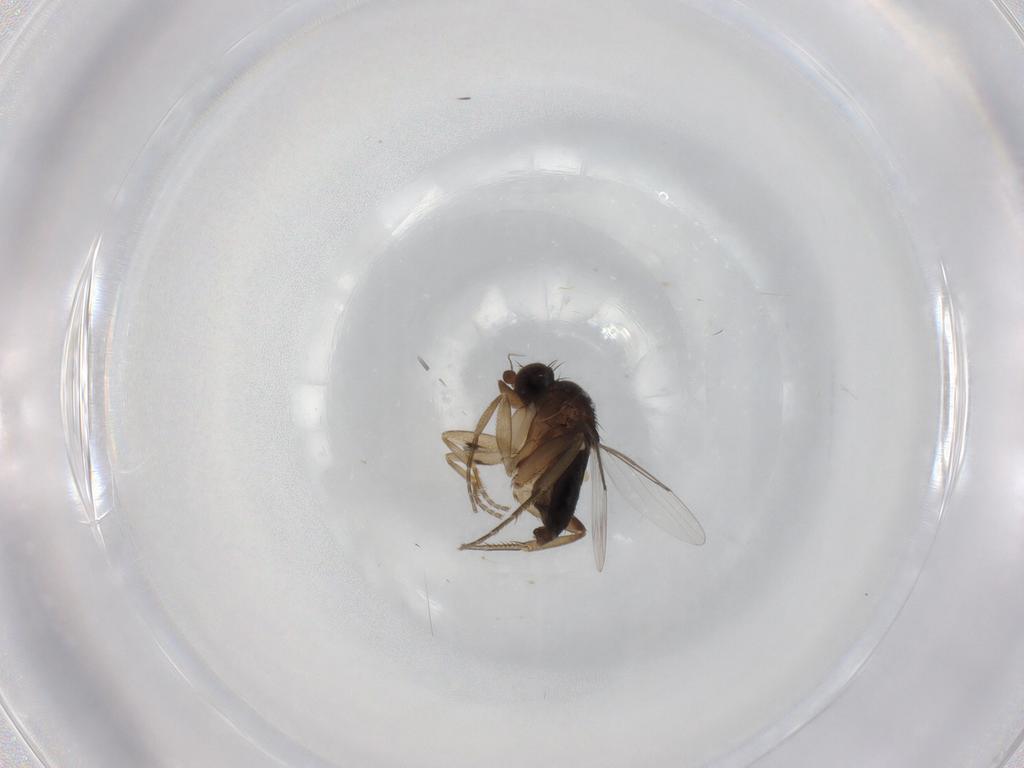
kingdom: Animalia
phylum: Arthropoda
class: Insecta
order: Diptera
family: Phoridae
